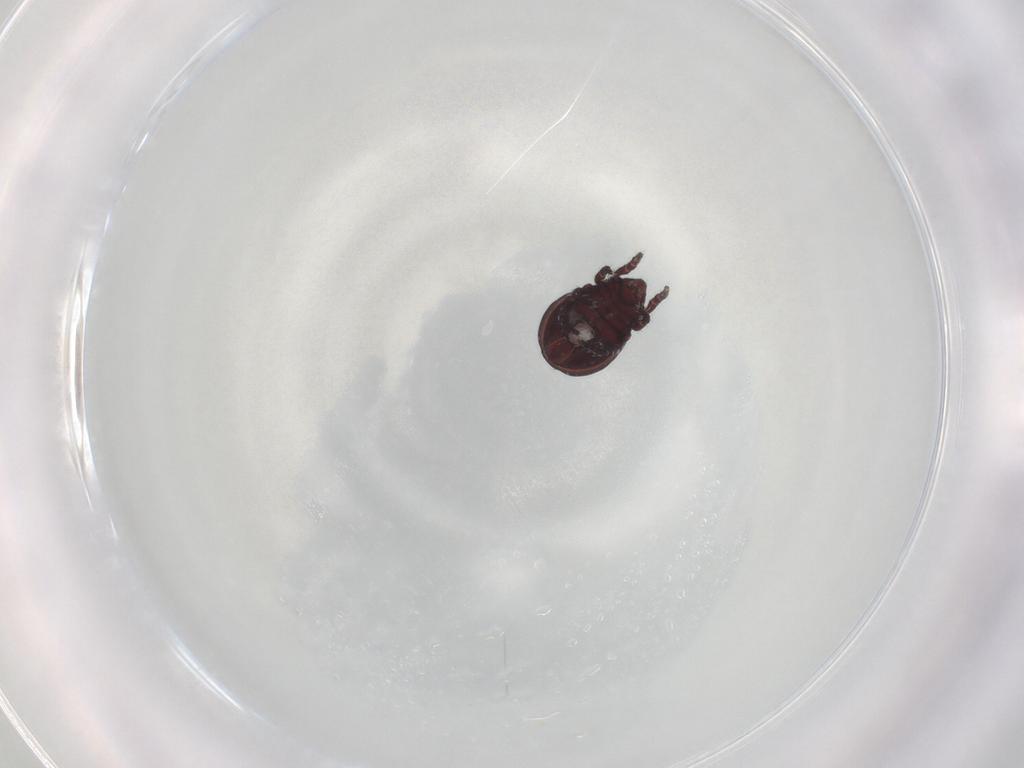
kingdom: Animalia
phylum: Arthropoda
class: Arachnida
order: Sarcoptiformes
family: Hermanniidae
